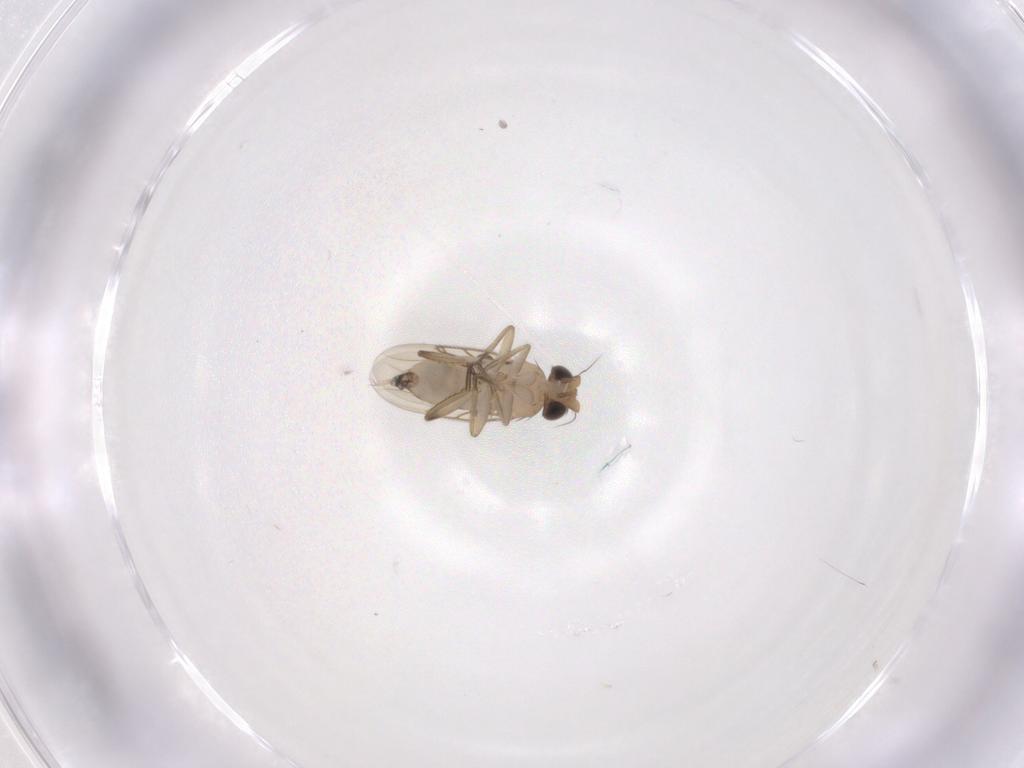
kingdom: Animalia
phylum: Arthropoda
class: Insecta
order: Diptera
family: Phoridae
